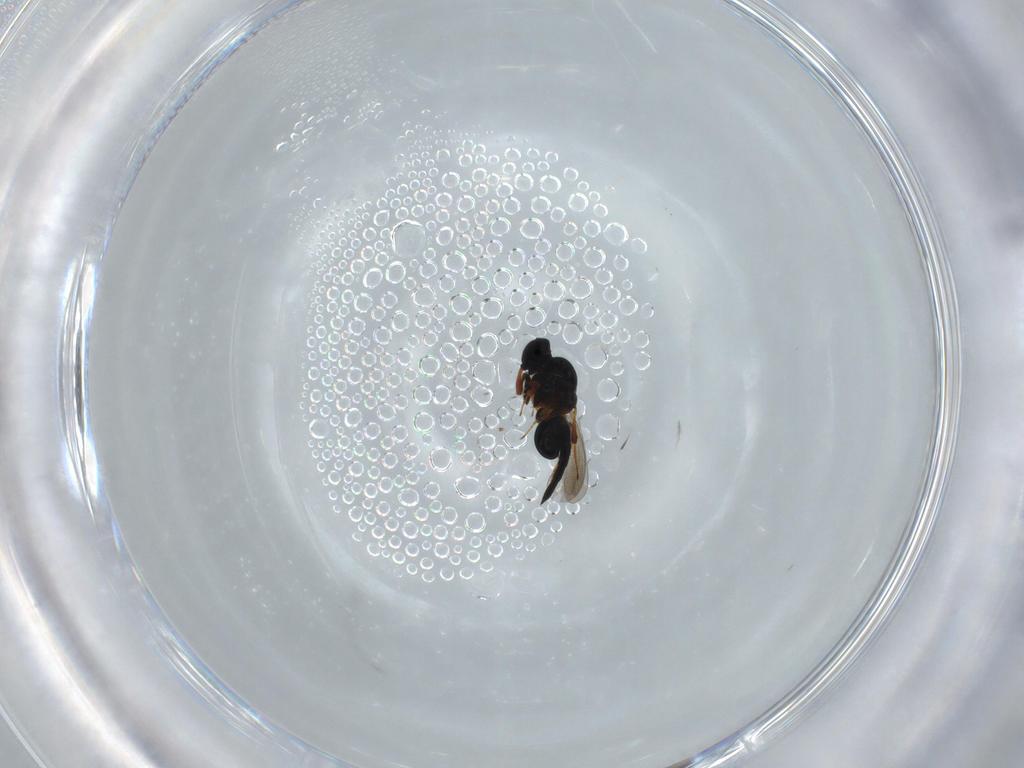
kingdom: Animalia
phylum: Arthropoda
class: Insecta
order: Hymenoptera
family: Platygastridae
